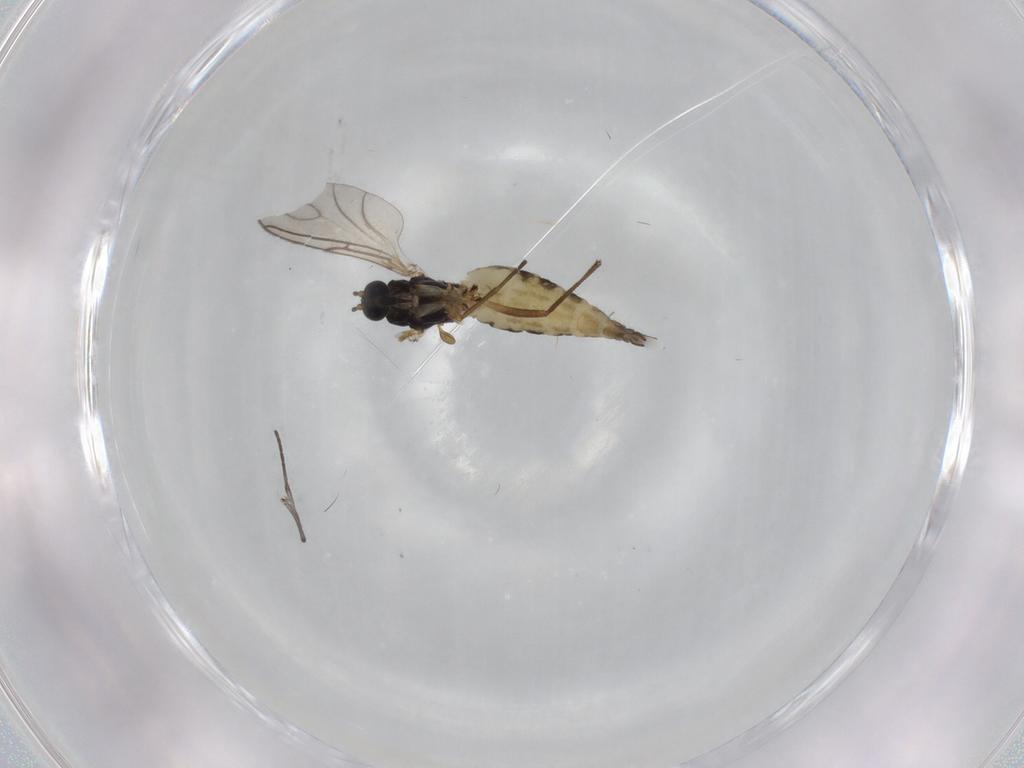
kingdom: Animalia
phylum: Arthropoda
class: Insecta
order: Diptera
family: Sciaridae
